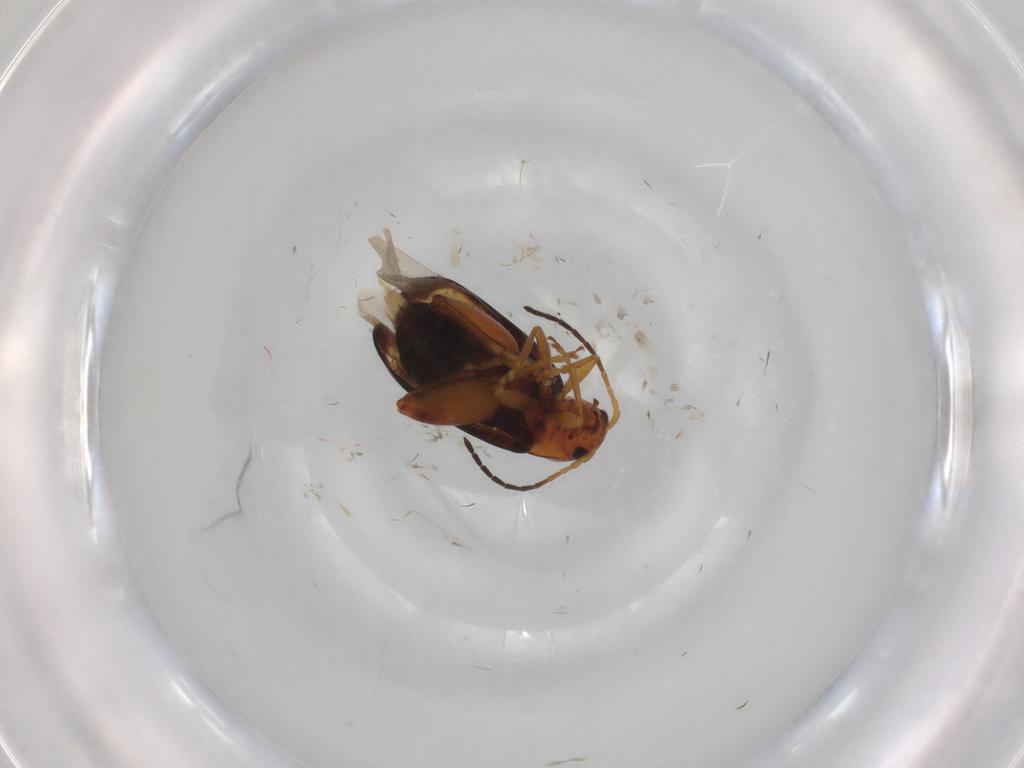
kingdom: Animalia
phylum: Arthropoda
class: Insecta
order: Coleoptera
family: Chrysomelidae
